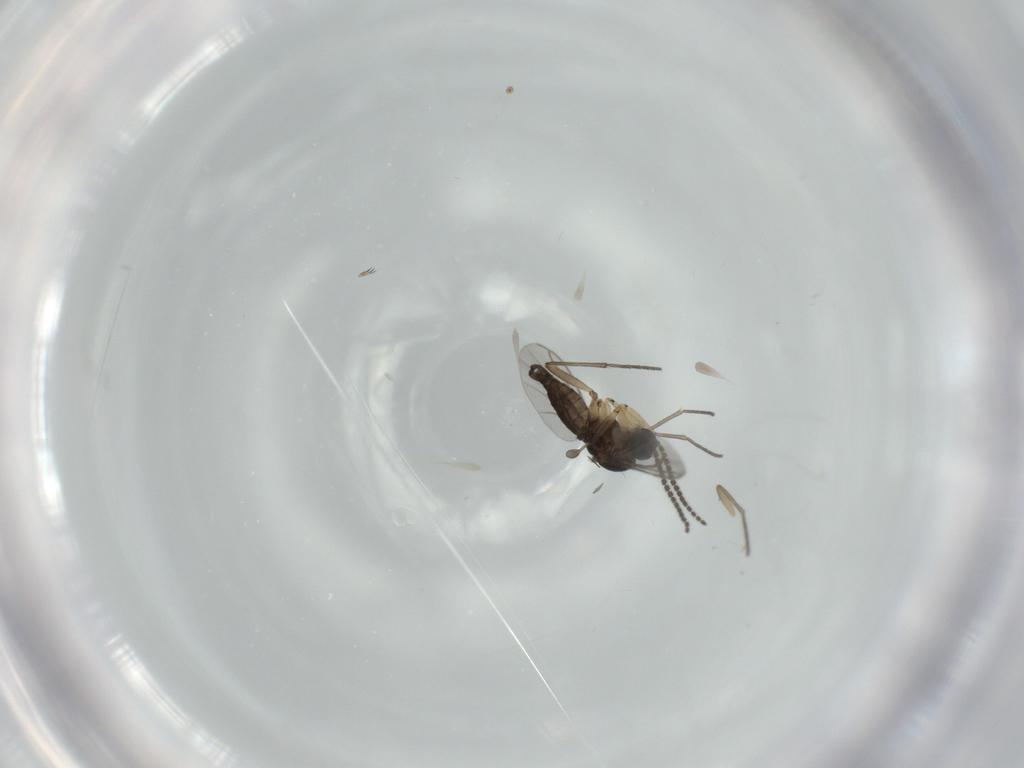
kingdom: Animalia
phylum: Arthropoda
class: Insecta
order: Diptera
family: Sciaridae
